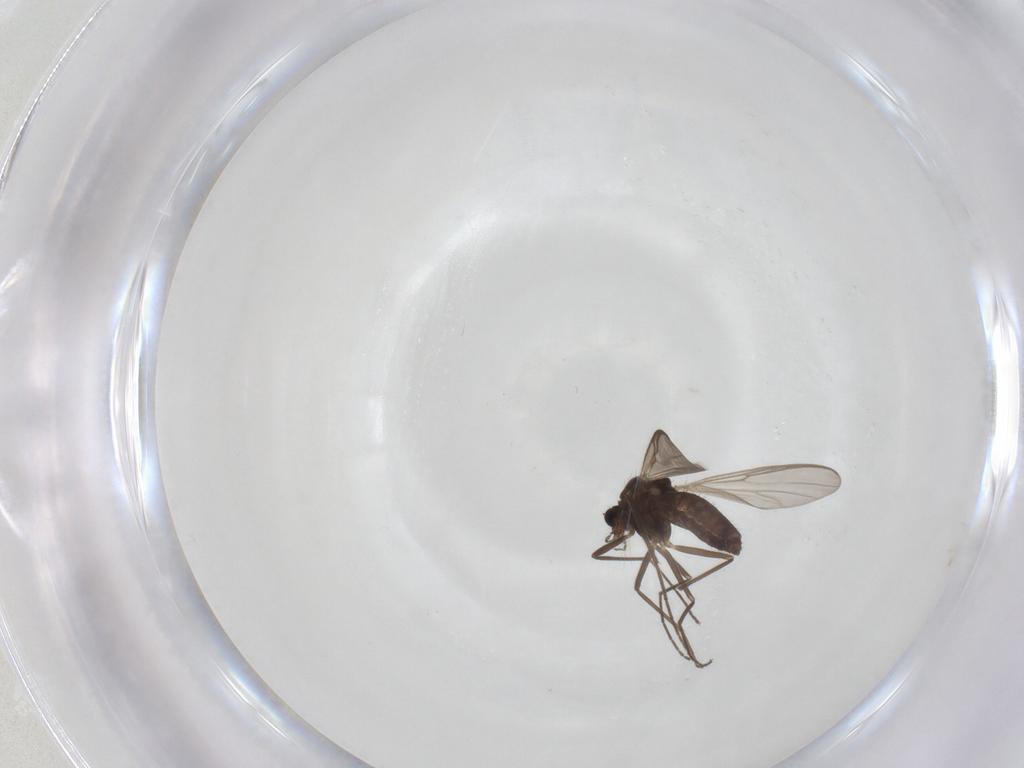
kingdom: Animalia
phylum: Arthropoda
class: Insecta
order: Diptera
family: Chironomidae
